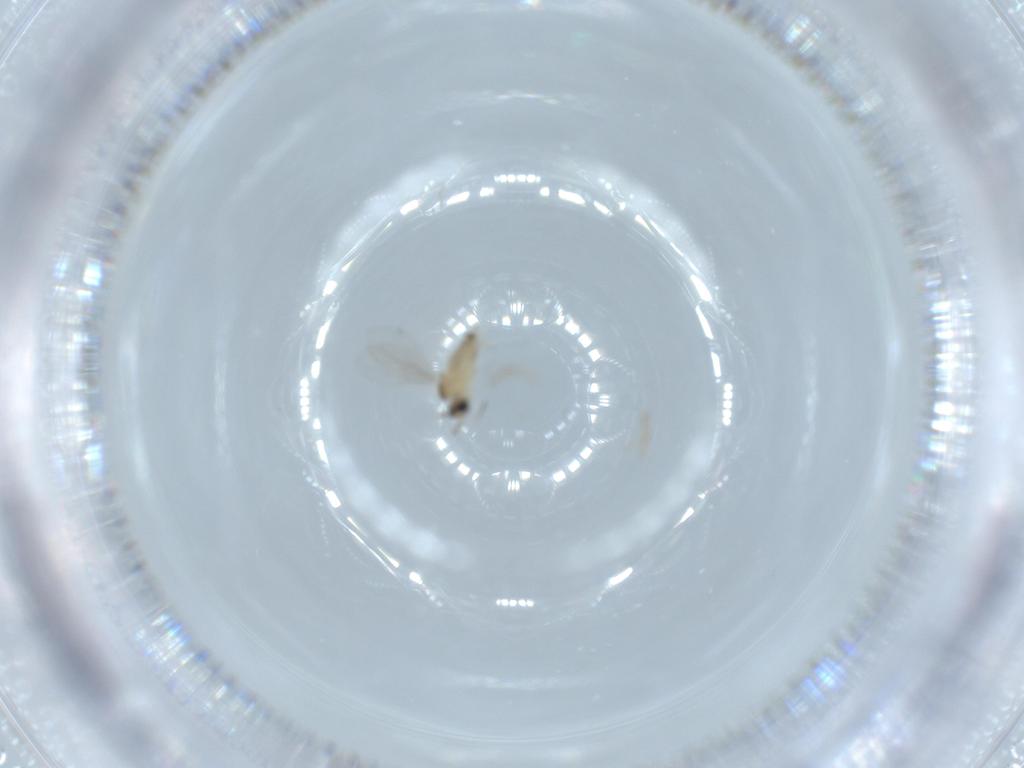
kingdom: Animalia
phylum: Arthropoda
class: Insecta
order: Diptera
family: Cecidomyiidae
